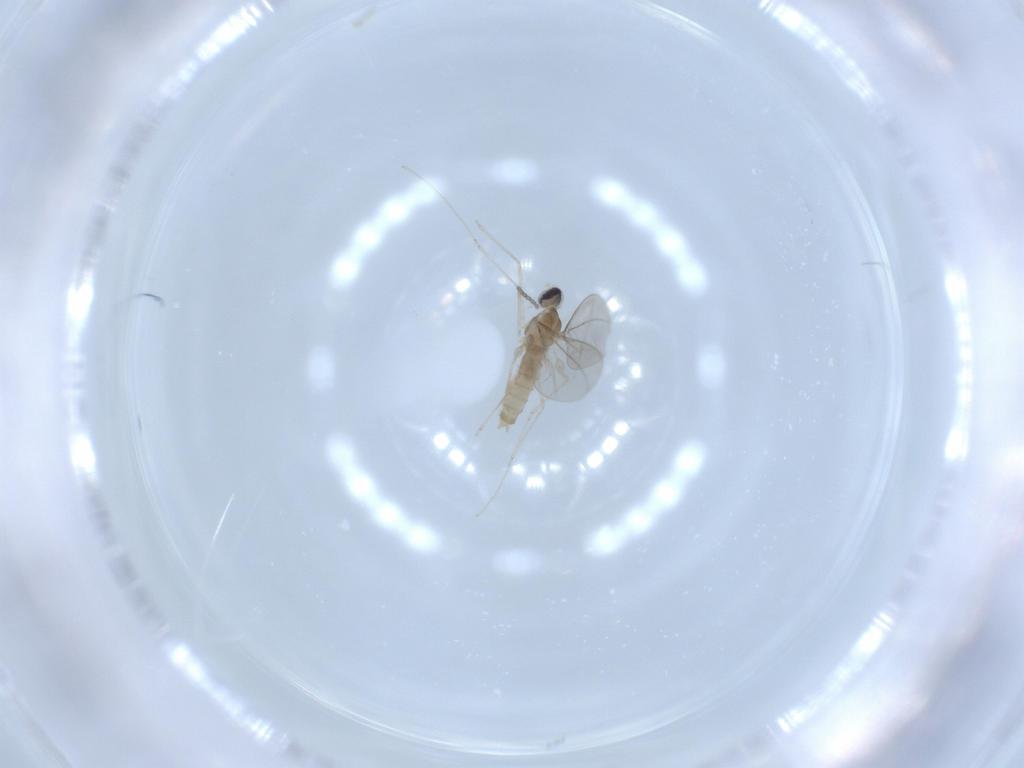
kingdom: Animalia
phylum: Arthropoda
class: Insecta
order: Diptera
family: Cecidomyiidae
